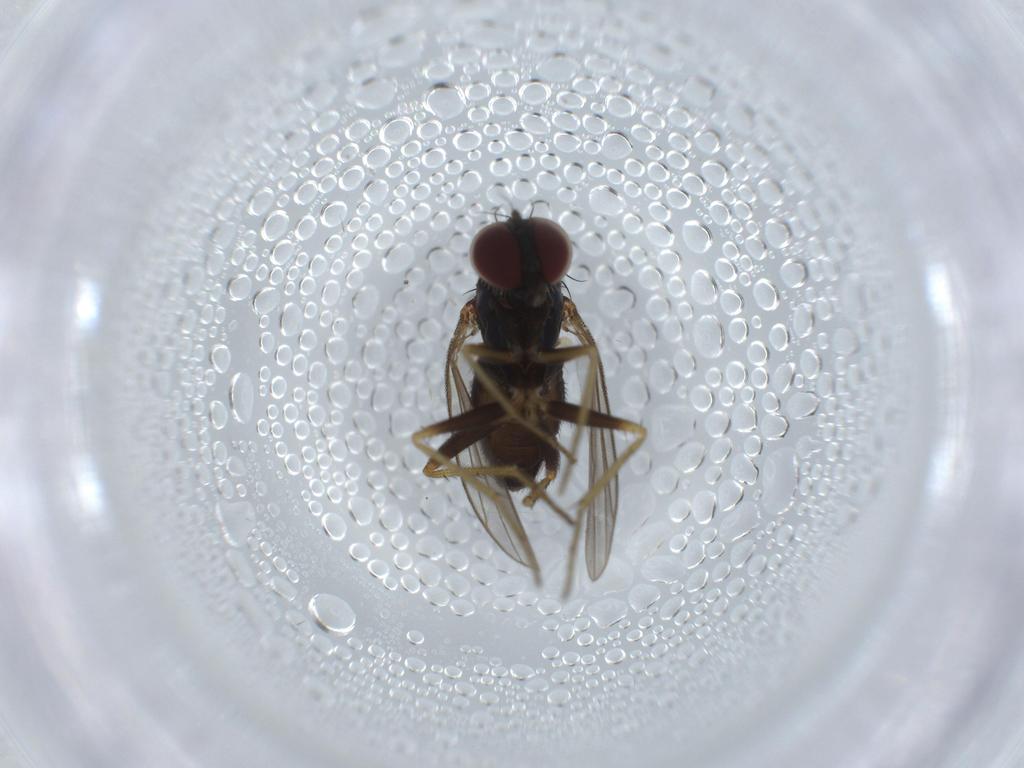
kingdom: Animalia
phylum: Arthropoda
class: Insecta
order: Diptera
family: Dolichopodidae
